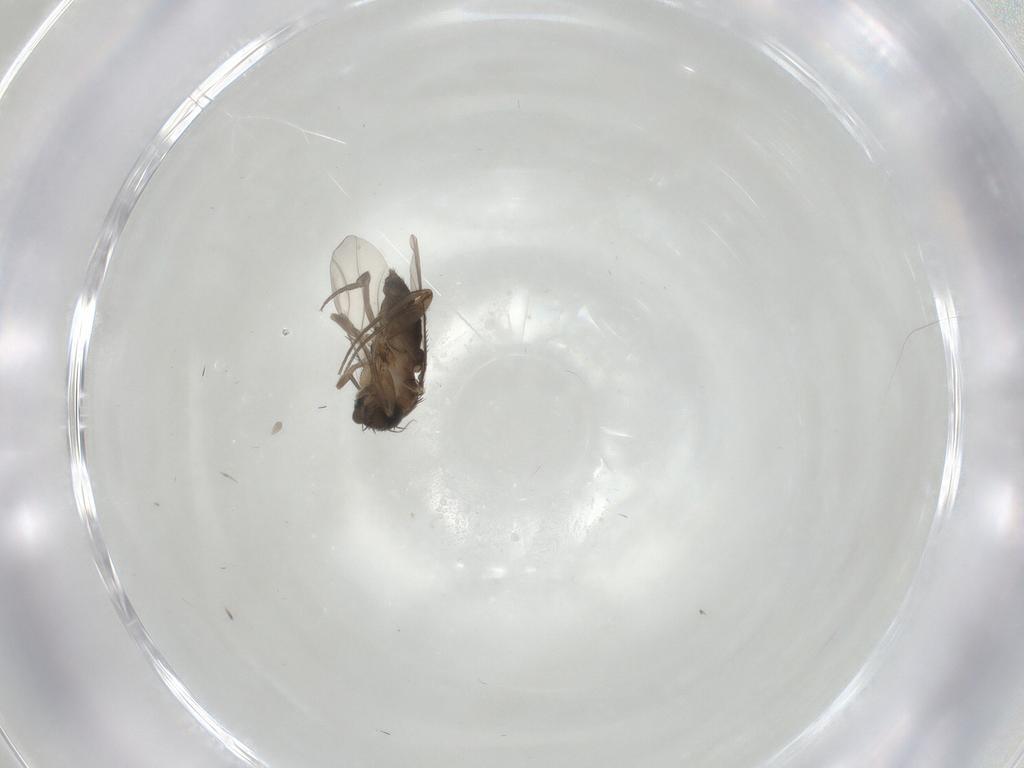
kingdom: Animalia
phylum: Arthropoda
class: Insecta
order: Diptera
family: Phoridae
